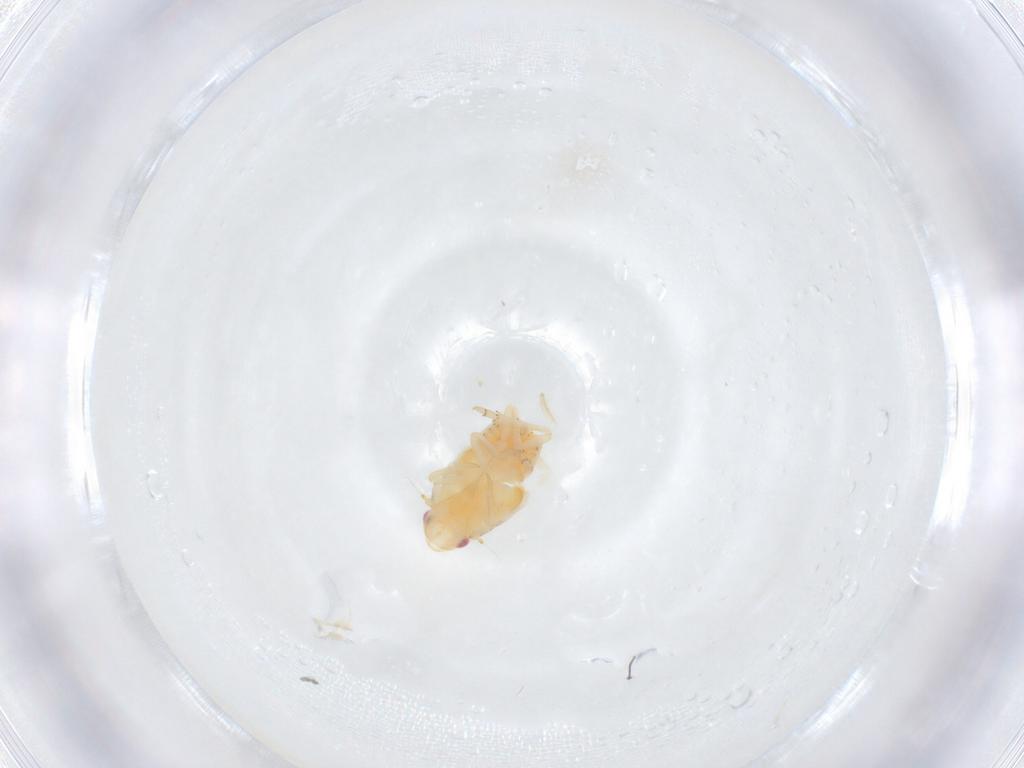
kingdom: Animalia
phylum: Arthropoda
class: Insecta
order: Hemiptera
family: Flatidae
